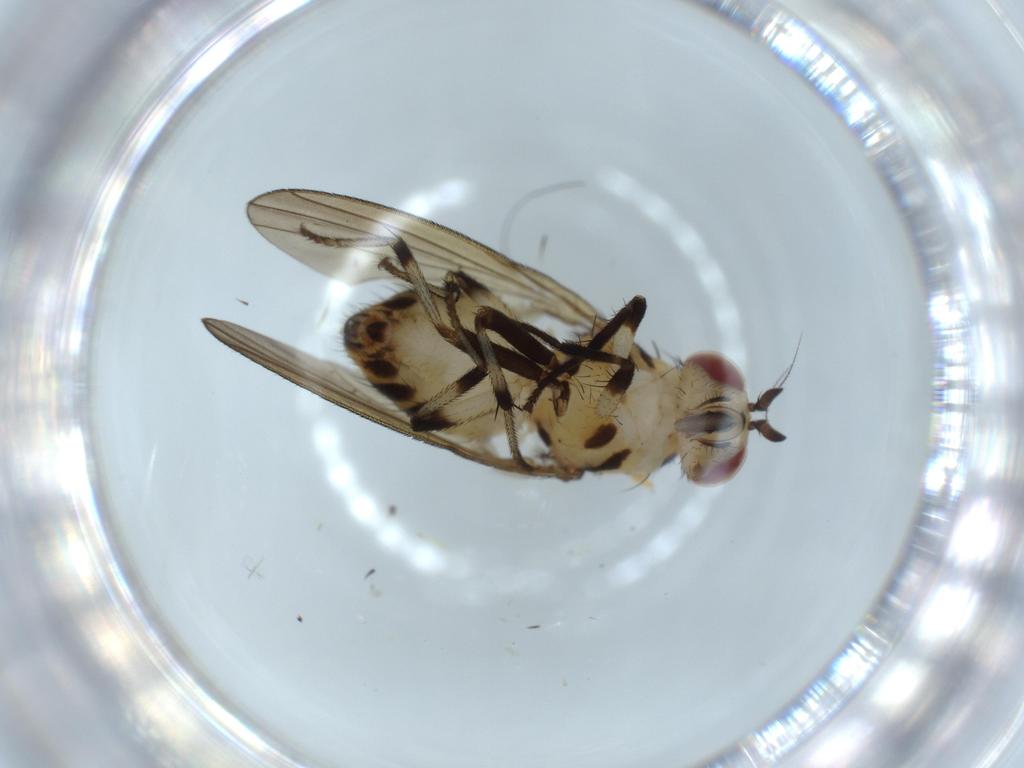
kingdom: Animalia
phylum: Arthropoda
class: Insecta
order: Diptera
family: Lauxaniidae
